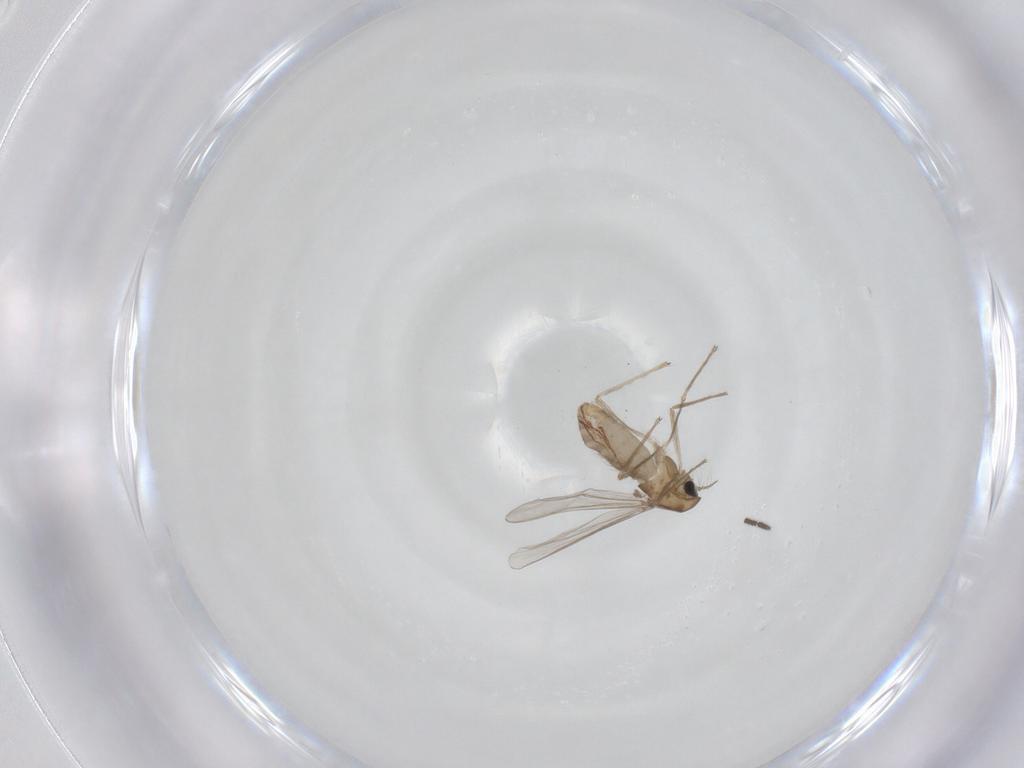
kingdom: Animalia
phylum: Arthropoda
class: Insecta
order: Diptera
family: Chironomidae
